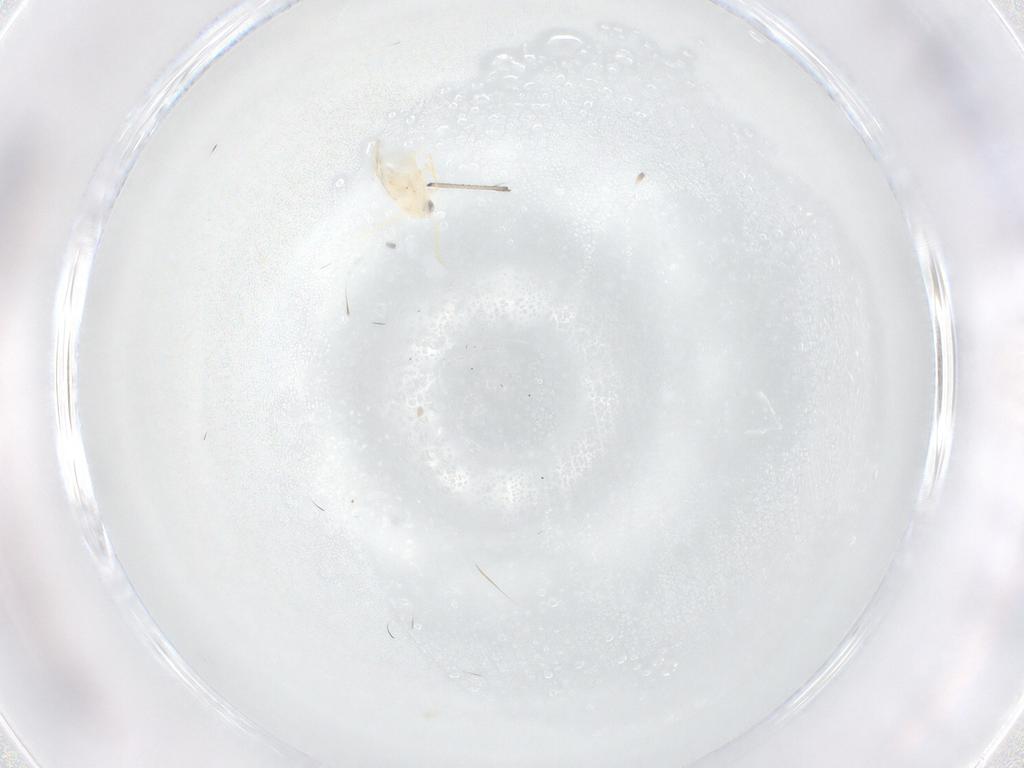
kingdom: Animalia
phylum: Arthropoda
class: Insecta
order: Hemiptera
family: Aleyrodidae
